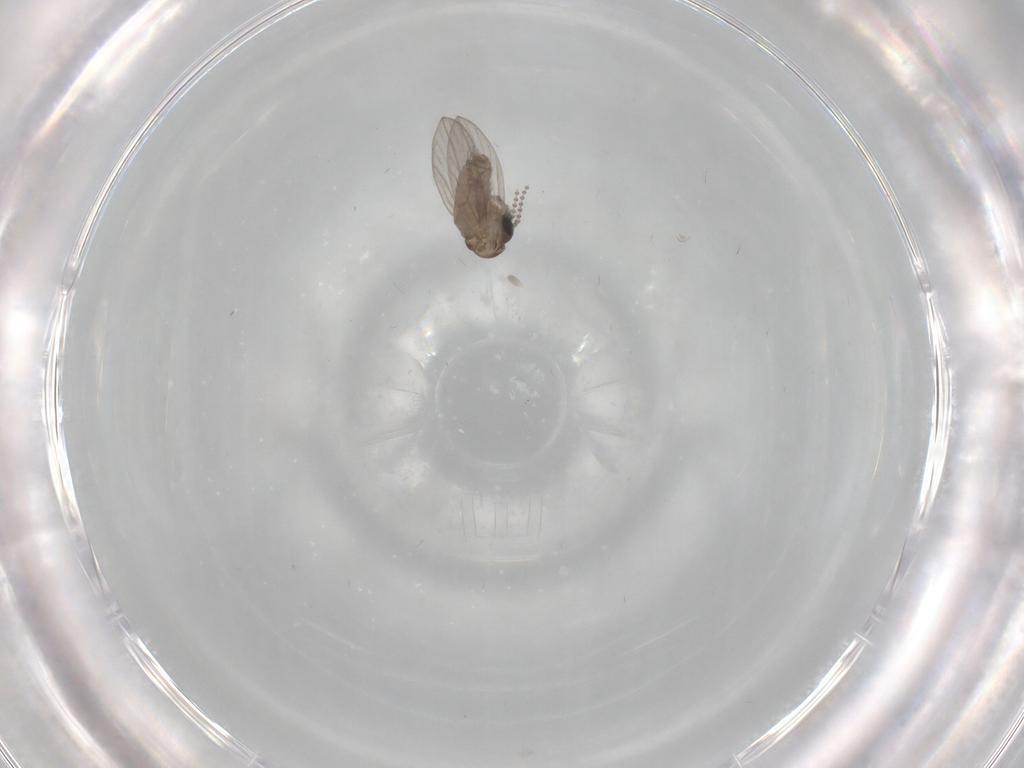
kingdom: Animalia
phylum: Arthropoda
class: Insecta
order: Diptera
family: Psychodidae
